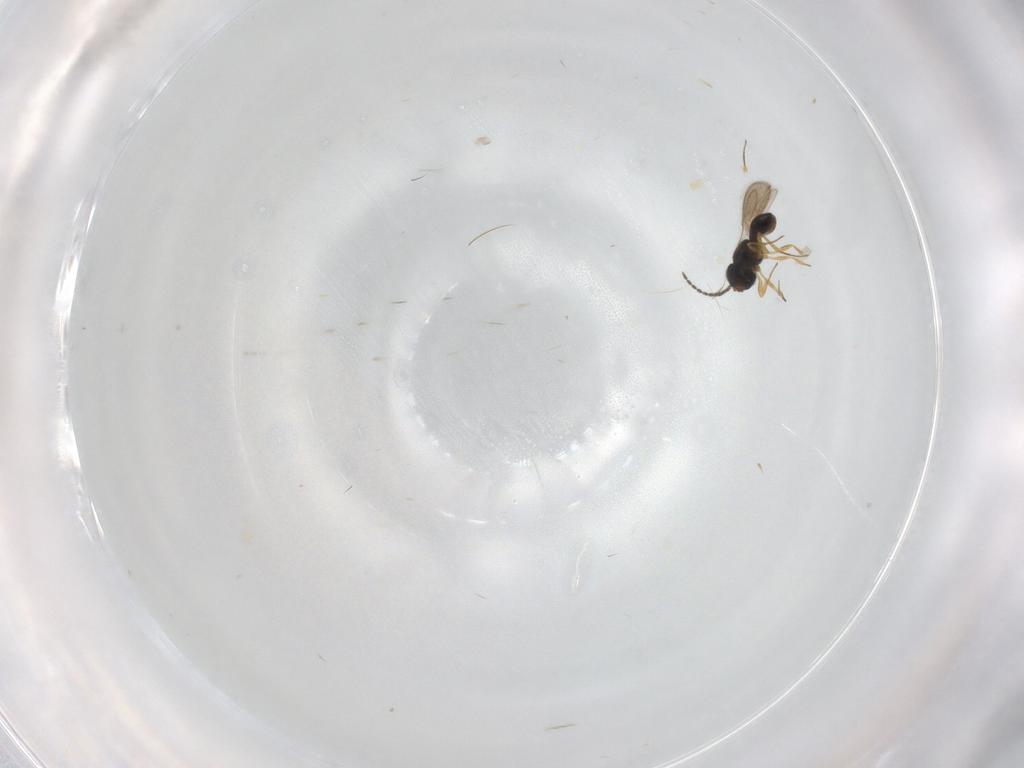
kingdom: Animalia
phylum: Arthropoda
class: Insecta
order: Hymenoptera
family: Scelionidae
